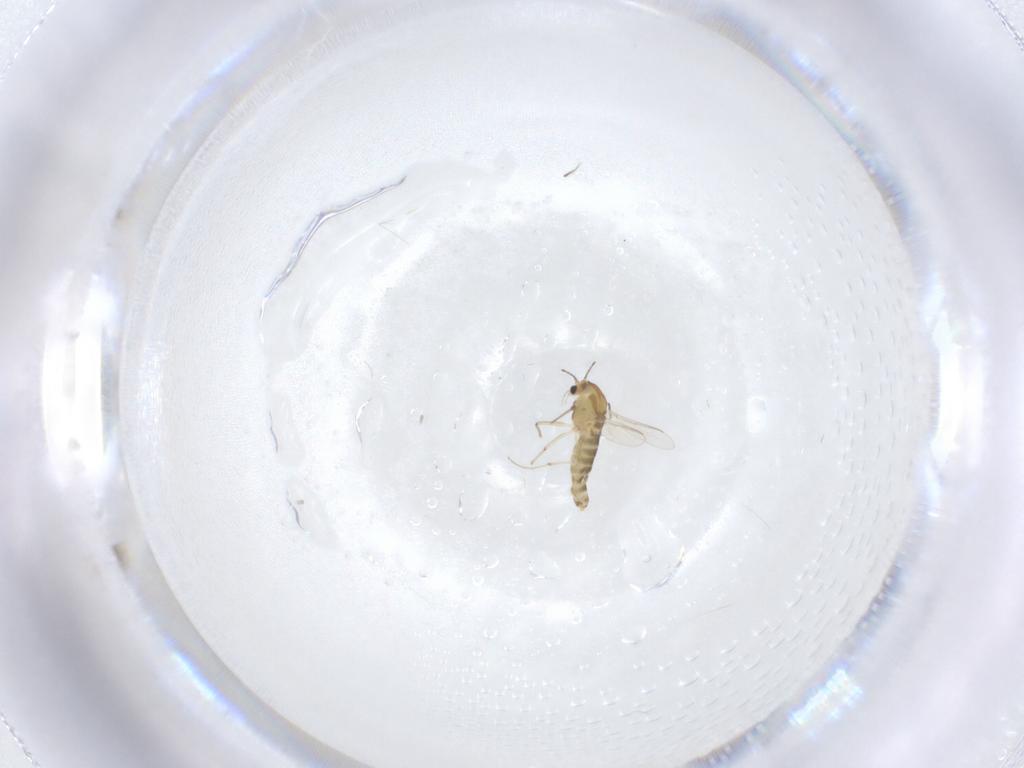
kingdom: Animalia
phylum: Arthropoda
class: Insecta
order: Diptera
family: Chironomidae
